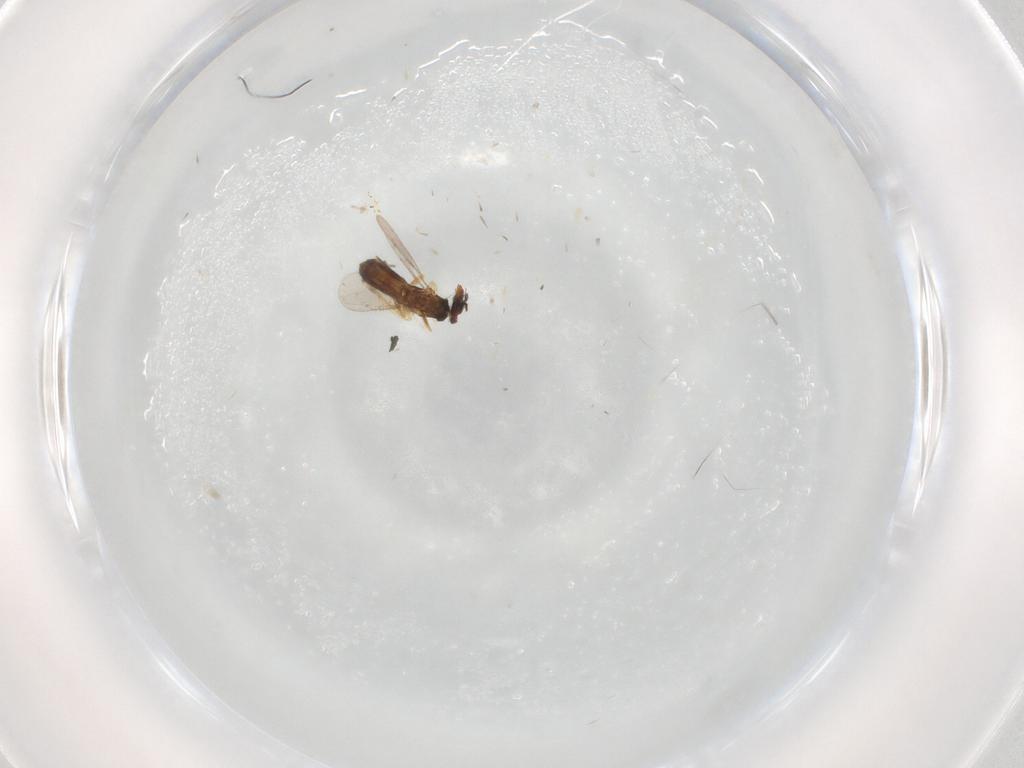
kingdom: Animalia
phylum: Arthropoda
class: Insecta
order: Hymenoptera
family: Eulophidae
